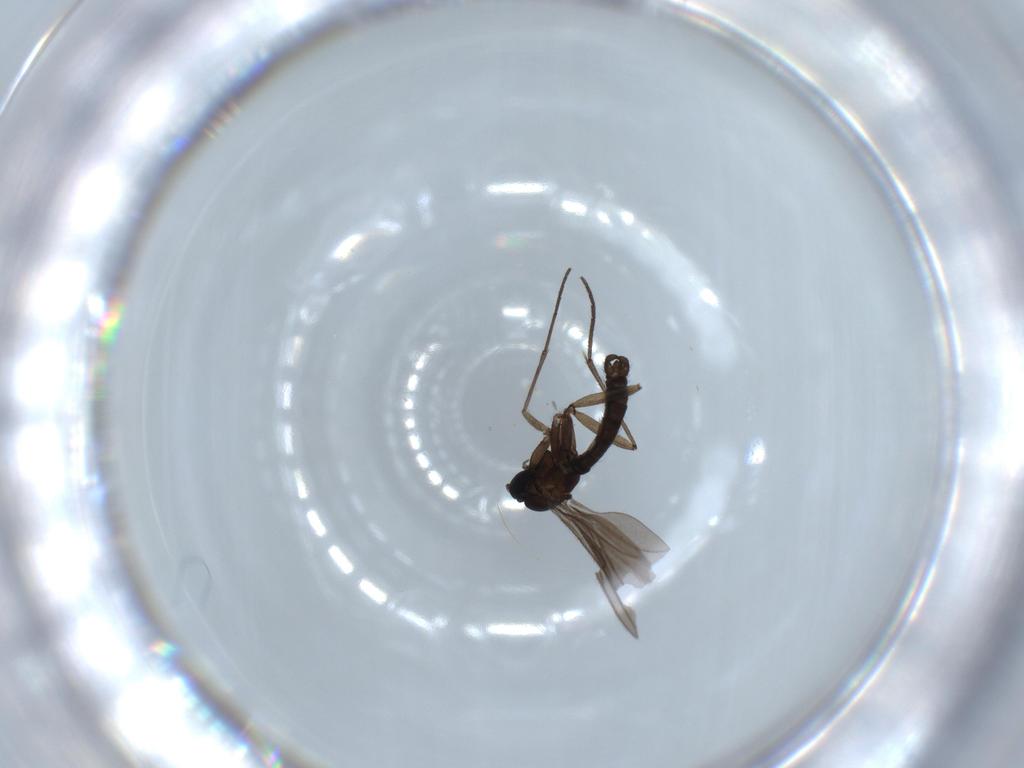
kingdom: Animalia
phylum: Arthropoda
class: Insecta
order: Diptera
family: Sciaridae
